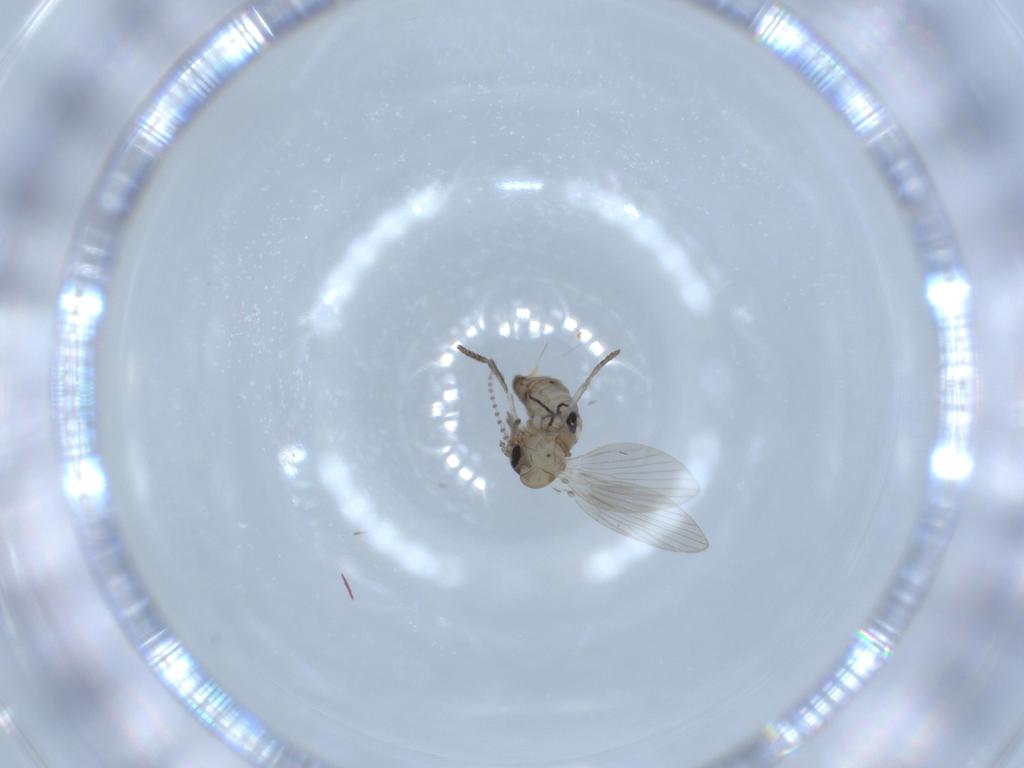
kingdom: Animalia
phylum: Arthropoda
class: Insecta
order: Diptera
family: Psychodidae
